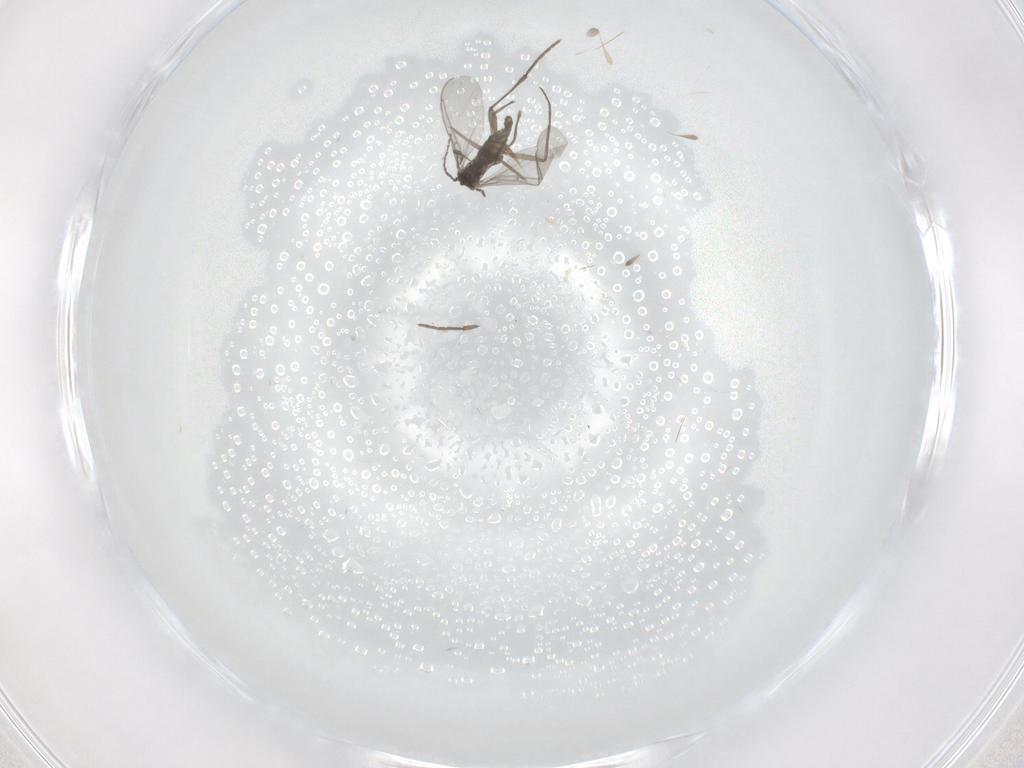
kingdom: Animalia
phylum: Arthropoda
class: Insecta
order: Diptera
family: Ceratopogonidae
